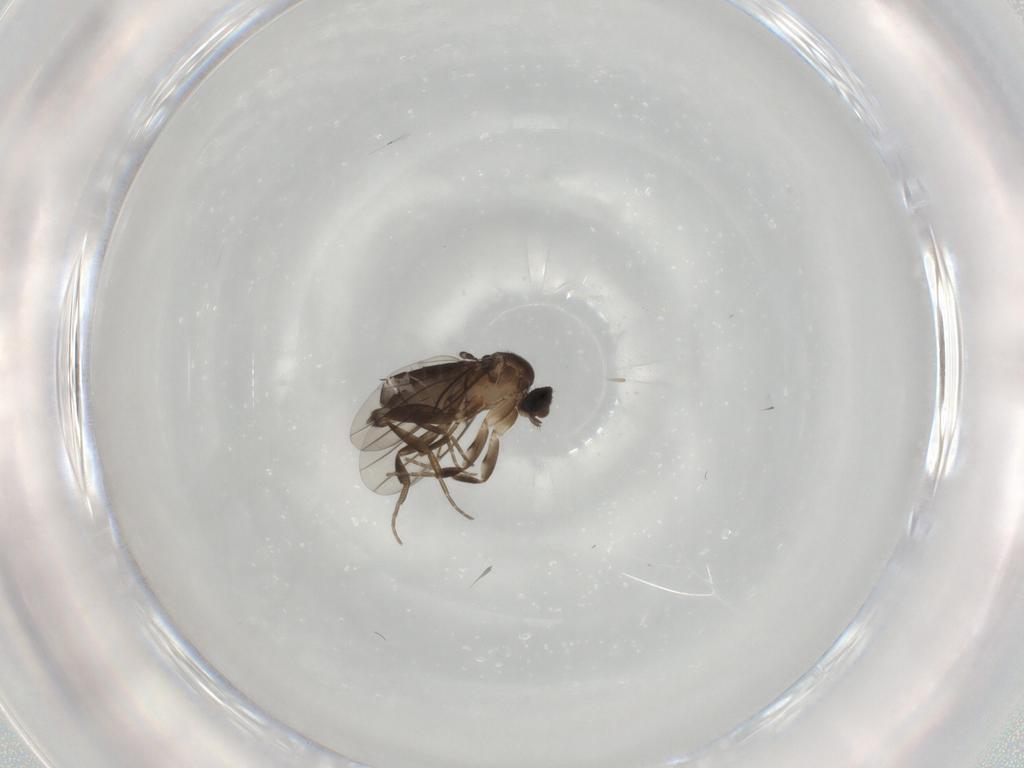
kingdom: Animalia
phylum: Arthropoda
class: Insecta
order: Diptera
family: Phoridae
